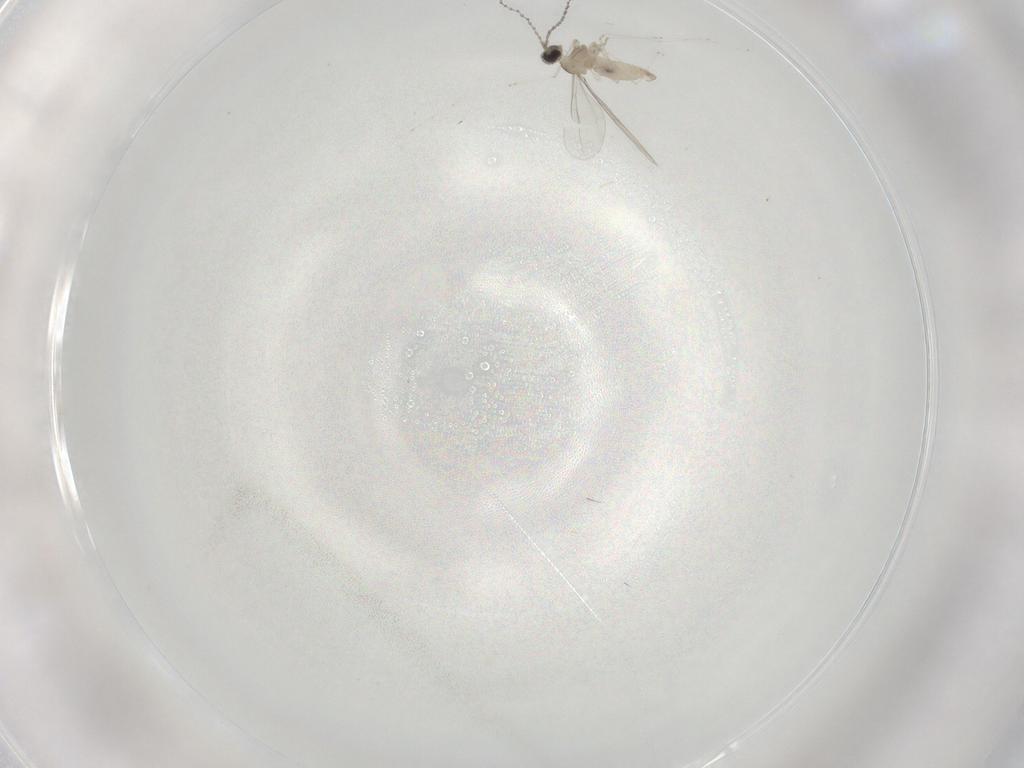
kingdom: Animalia
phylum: Arthropoda
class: Insecta
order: Diptera
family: Cecidomyiidae
